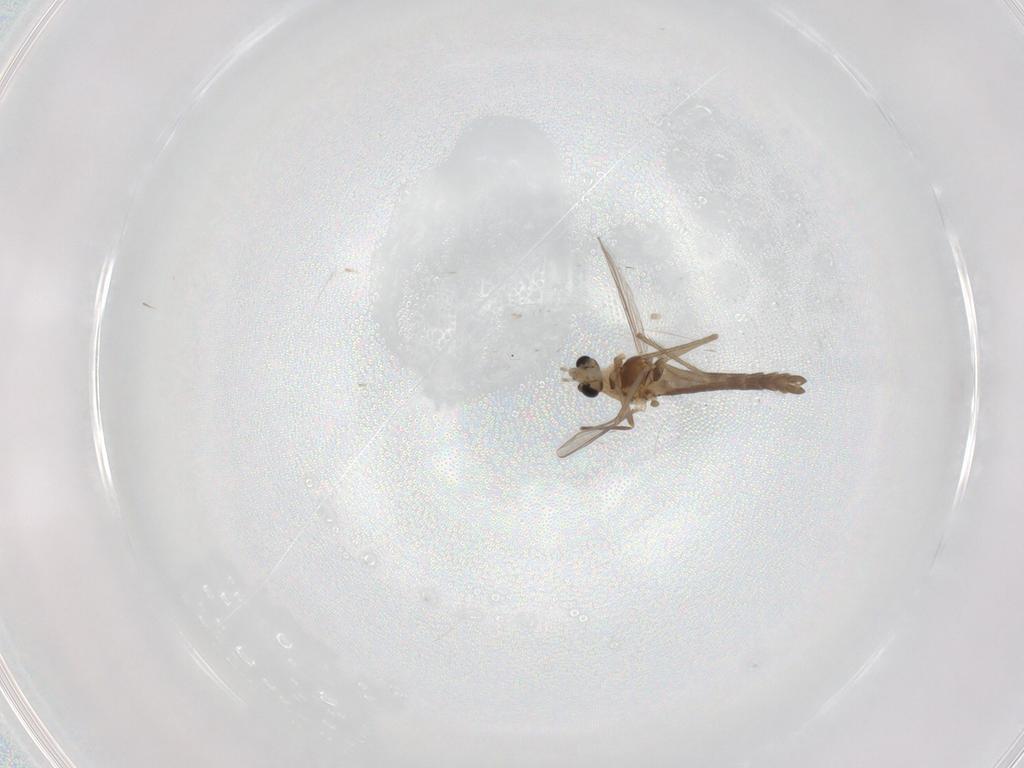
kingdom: Animalia
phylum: Arthropoda
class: Insecta
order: Diptera
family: Chironomidae
